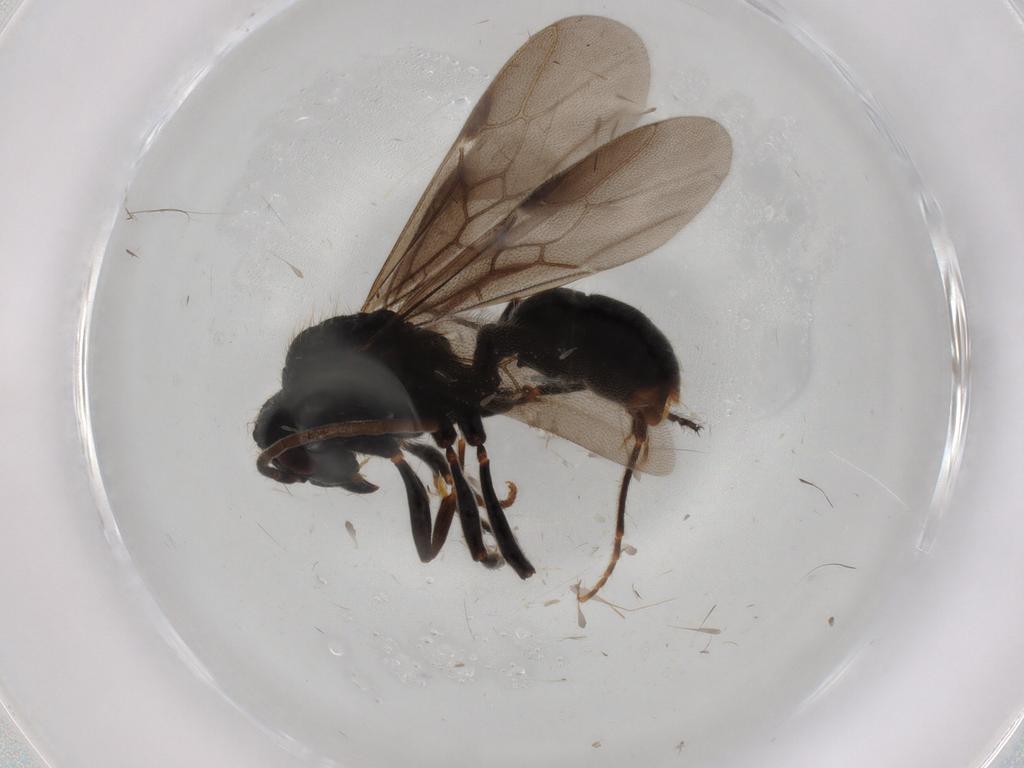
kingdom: Animalia
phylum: Arthropoda
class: Insecta
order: Hymenoptera
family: Formicidae
